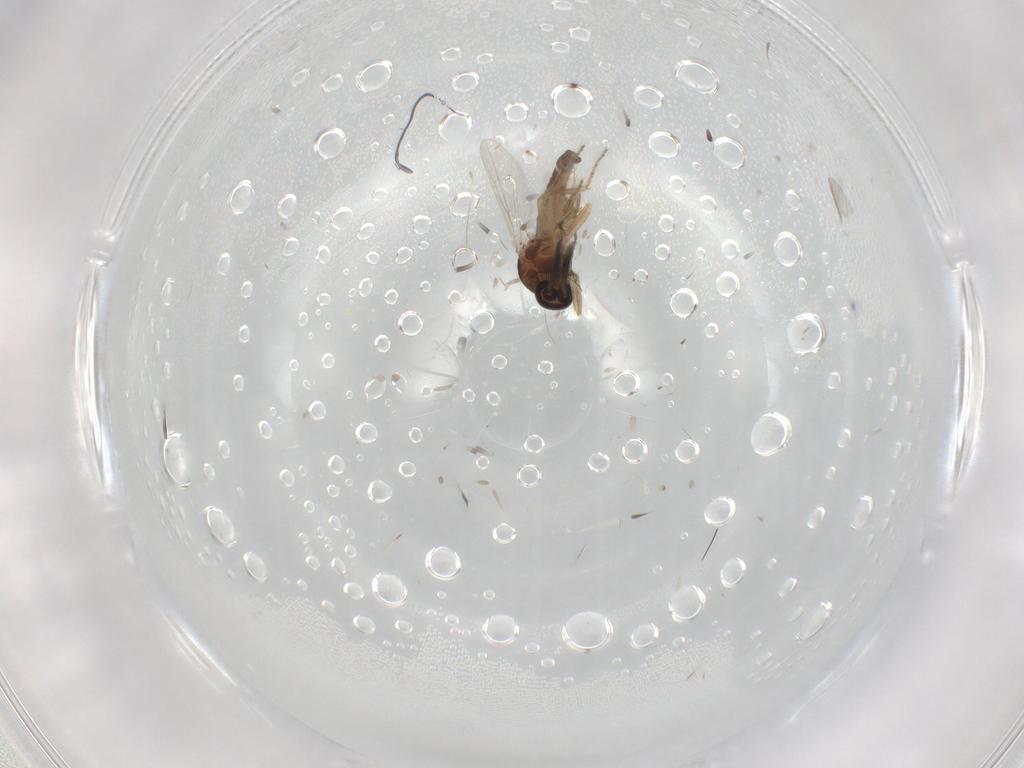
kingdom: Animalia
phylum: Arthropoda
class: Insecta
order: Diptera
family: Ceratopogonidae
